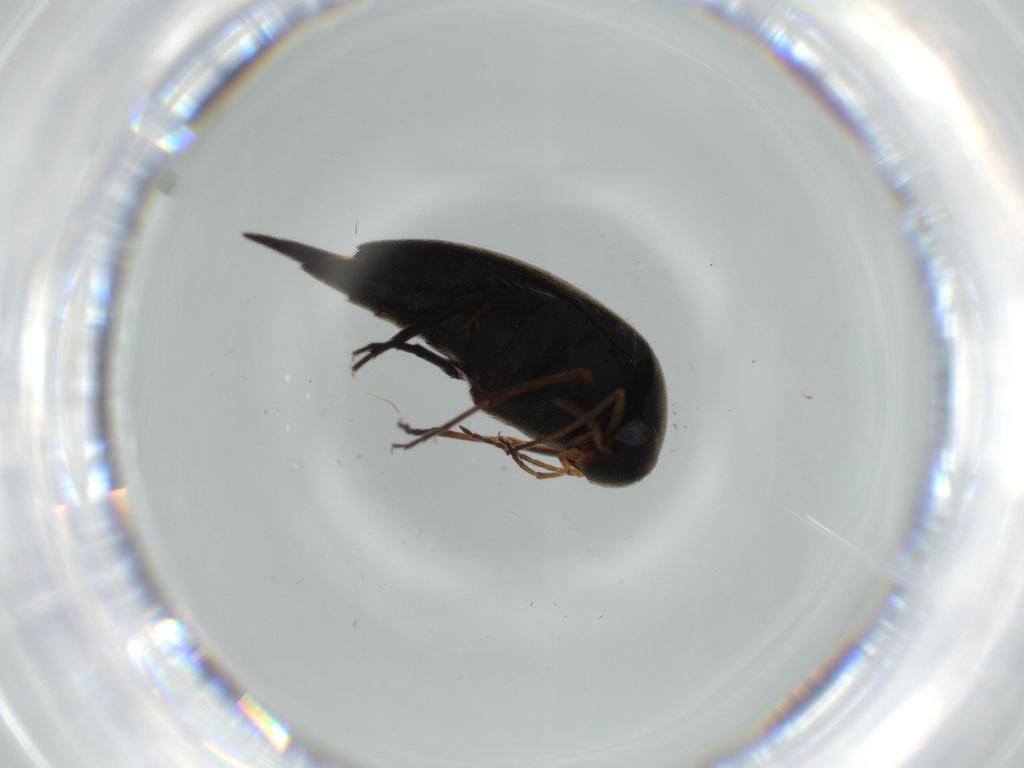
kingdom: Animalia
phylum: Arthropoda
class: Insecta
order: Coleoptera
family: Erotylidae
